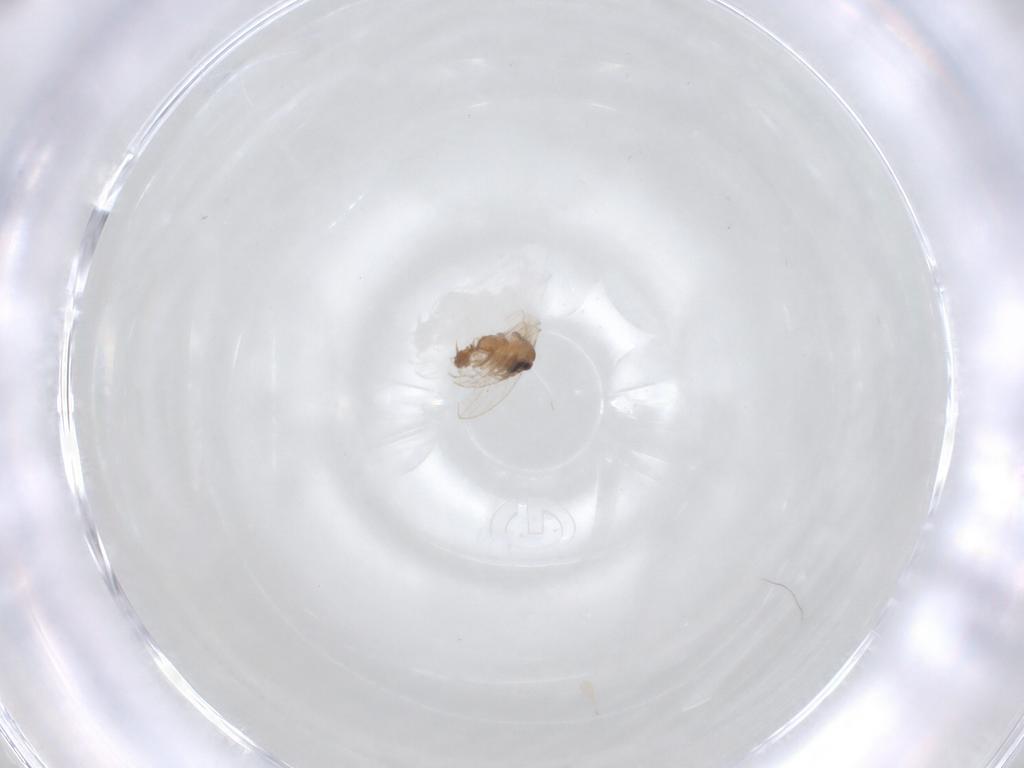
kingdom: Animalia
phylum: Arthropoda
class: Insecta
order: Diptera
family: Psychodidae
